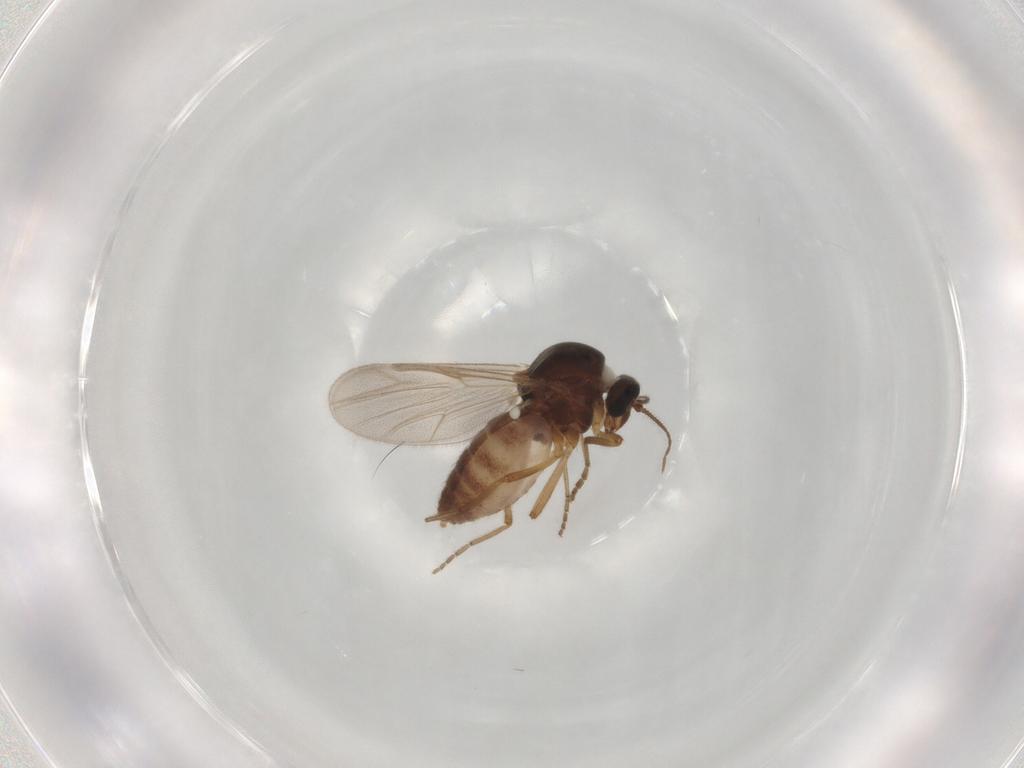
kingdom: Animalia
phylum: Arthropoda
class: Insecta
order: Diptera
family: Ceratopogonidae
